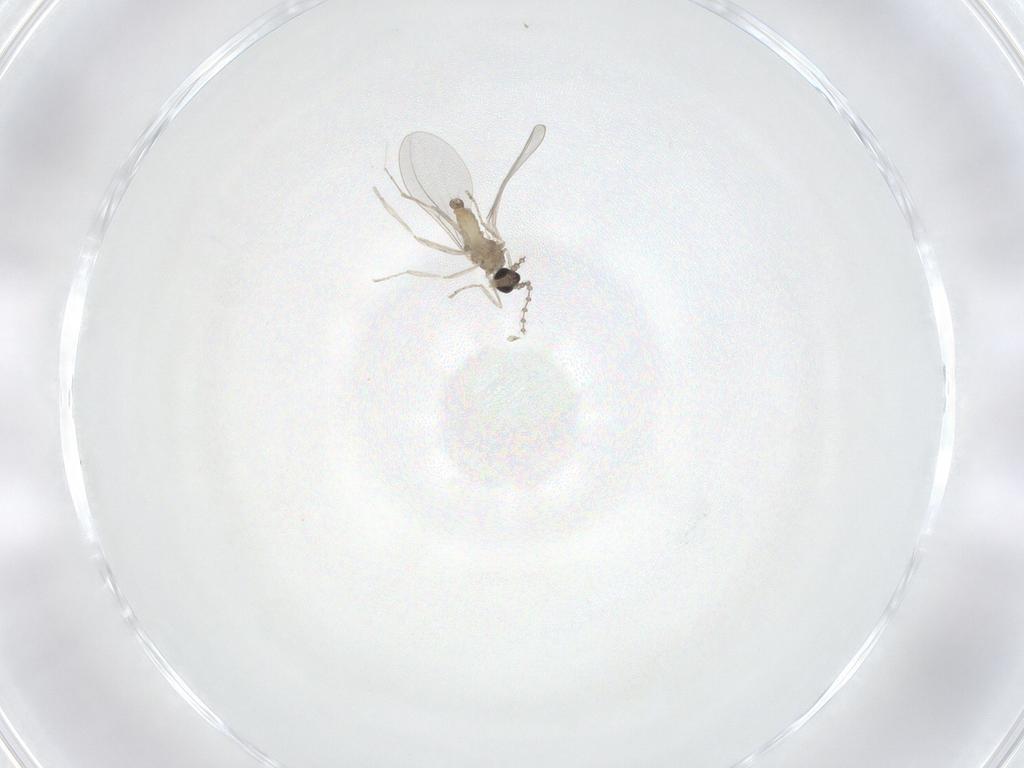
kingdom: Animalia
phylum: Arthropoda
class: Insecta
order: Diptera
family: Cecidomyiidae
